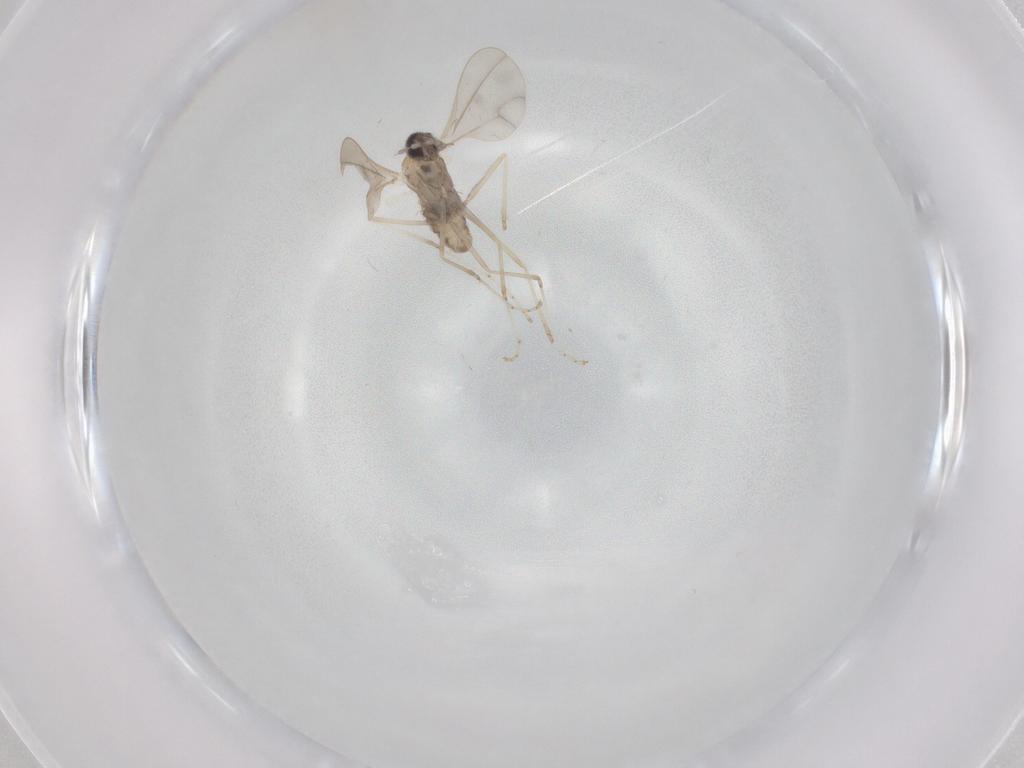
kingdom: Animalia
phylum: Arthropoda
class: Insecta
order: Diptera
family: Cecidomyiidae
